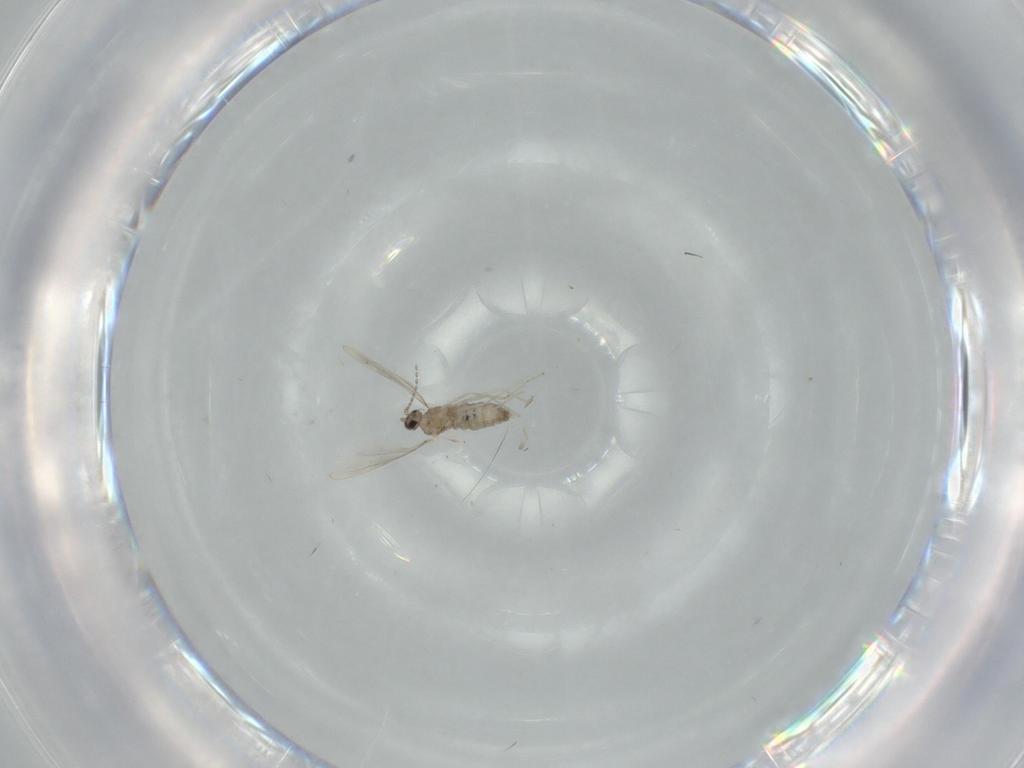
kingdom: Animalia
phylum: Arthropoda
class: Insecta
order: Diptera
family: Cecidomyiidae
